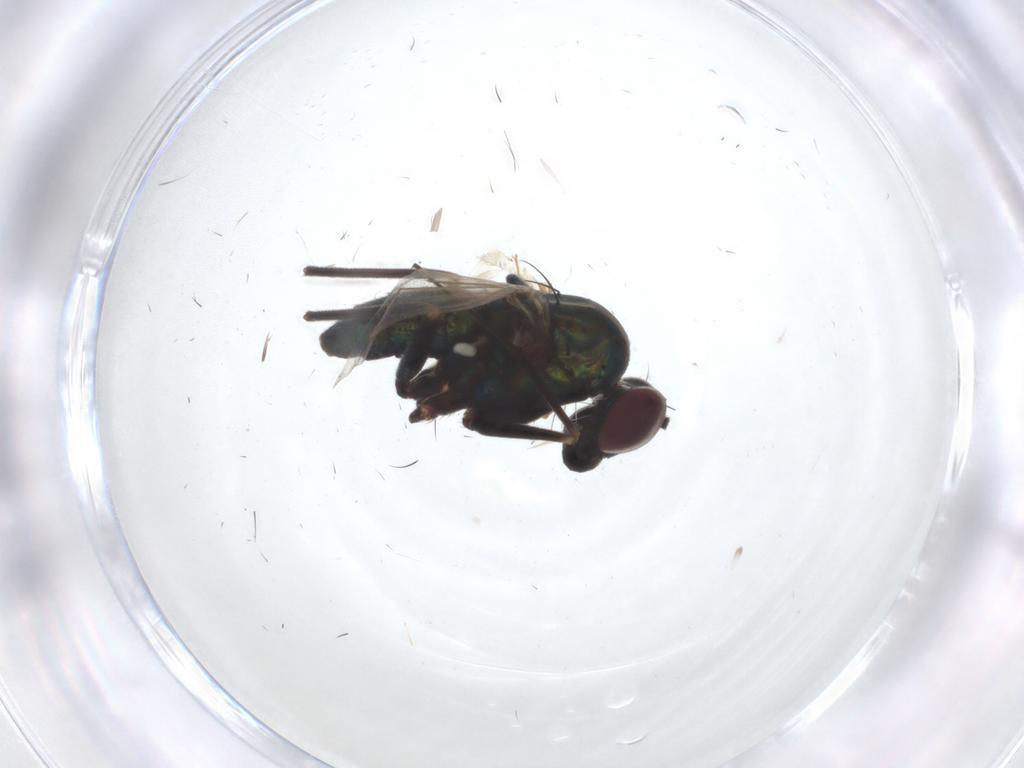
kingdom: Animalia
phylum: Arthropoda
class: Insecta
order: Diptera
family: Dolichopodidae
